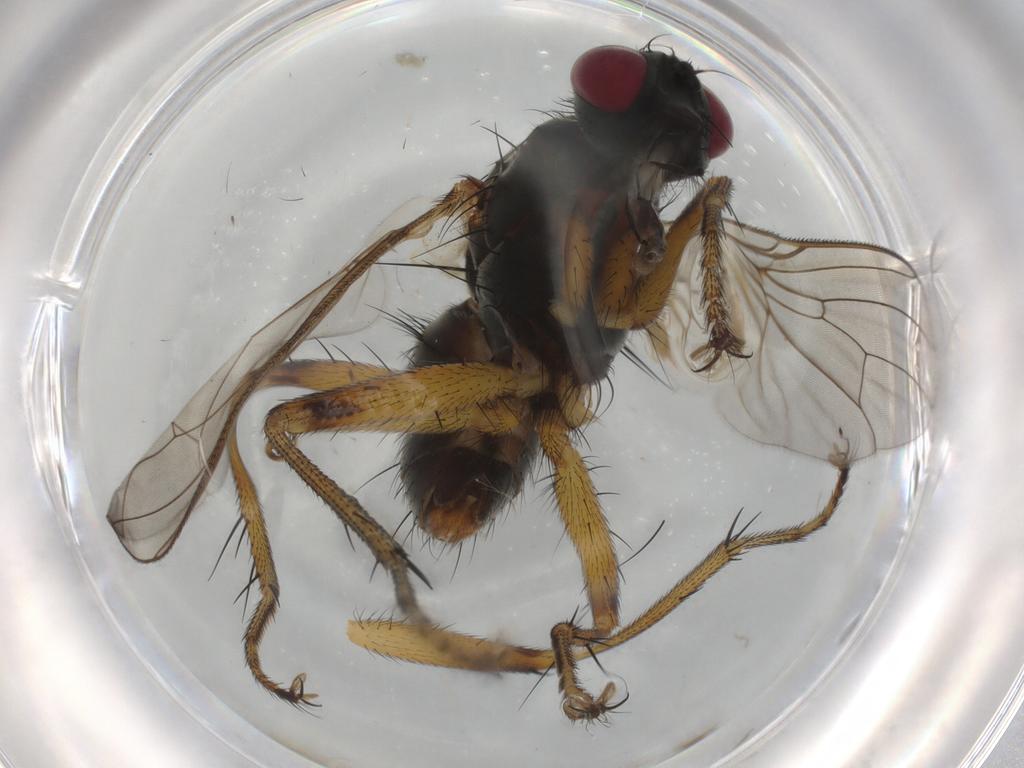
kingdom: Animalia
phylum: Arthropoda
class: Insecta
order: Diptera
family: Muscidae
